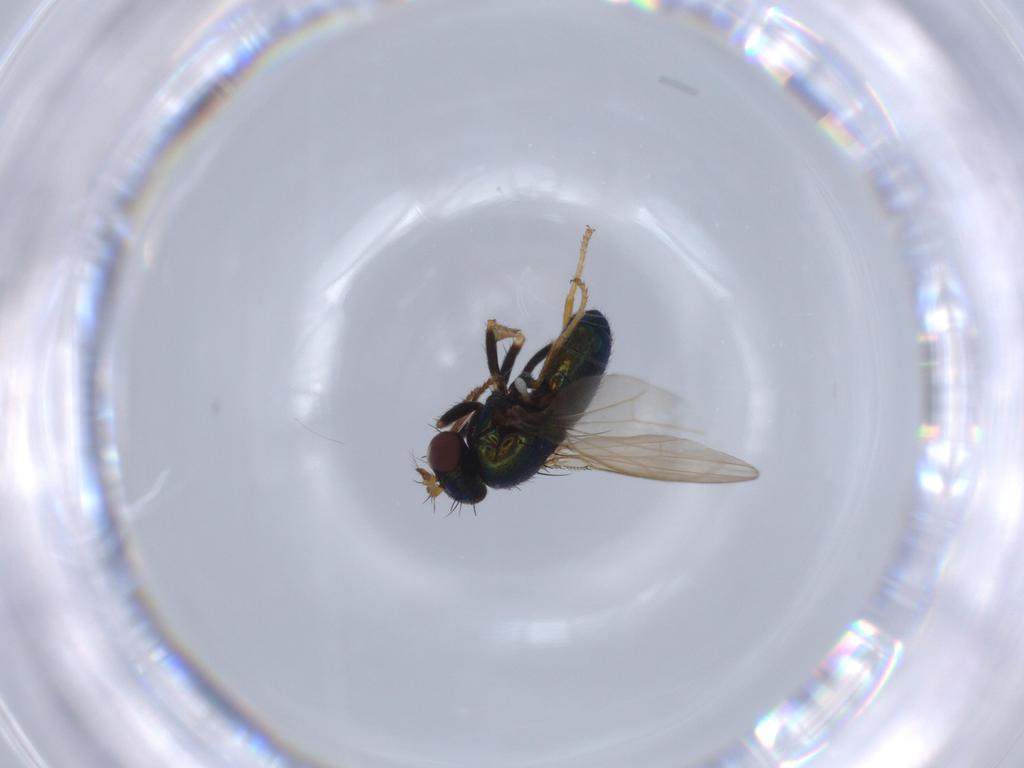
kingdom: Animalia
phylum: Arthropoda
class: Insecta
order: Diptera
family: Ephydridae
